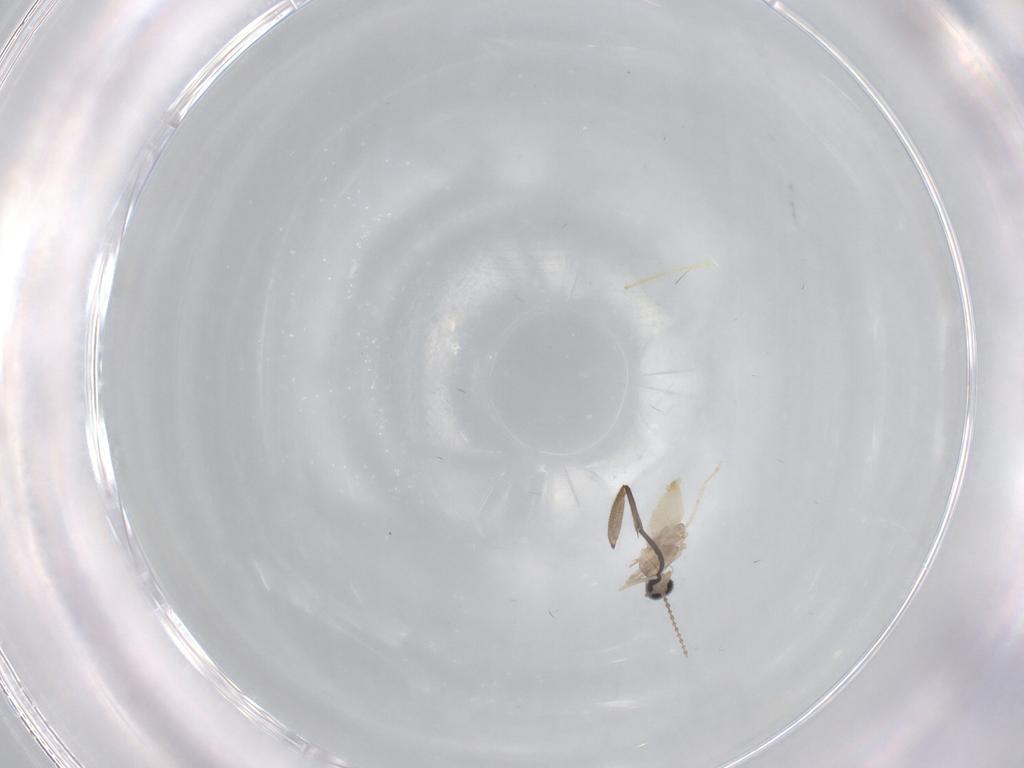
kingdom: Animalia
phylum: Arthropoda
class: Insecta
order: Diptera
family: Cecidomyiidae
